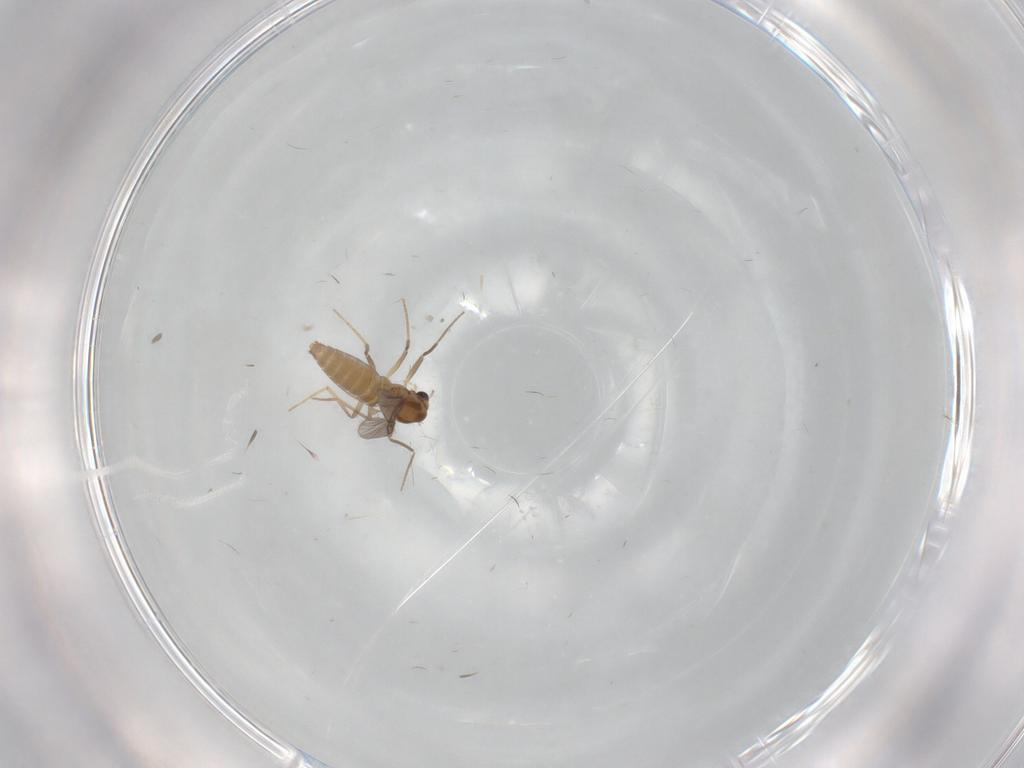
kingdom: Animalia
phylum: Arthropoda
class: Insecta
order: Diptera
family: Chironomidae
